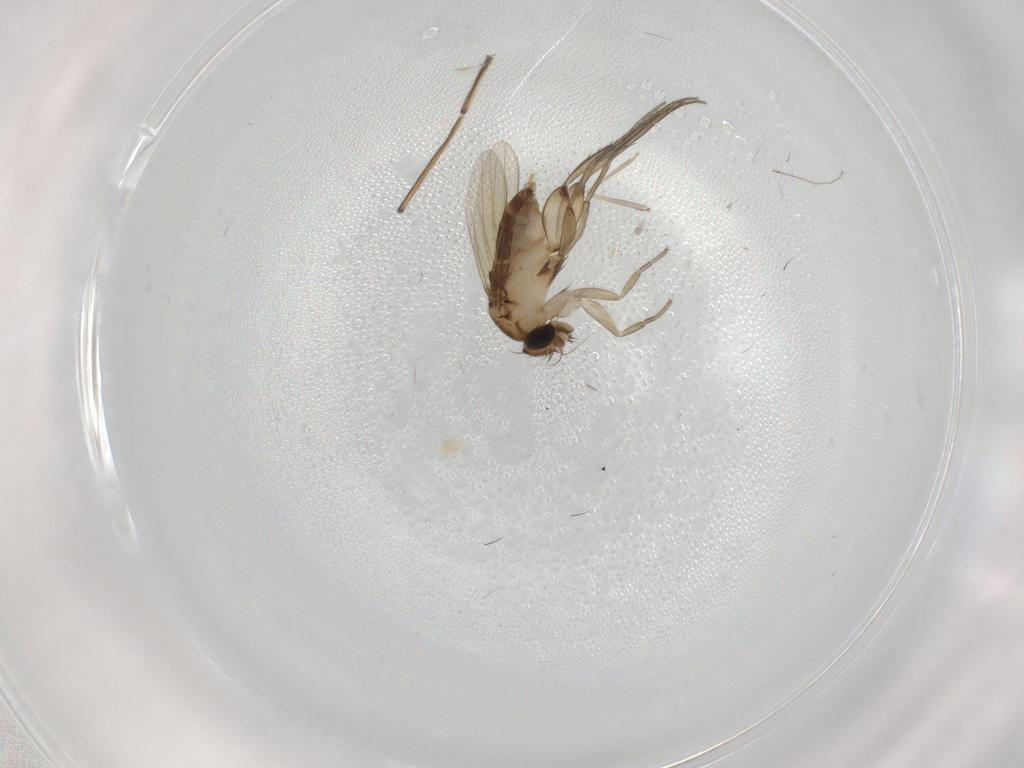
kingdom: Animalia
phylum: Arthropoda
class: Insecta
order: Diptera
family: Phoridae
